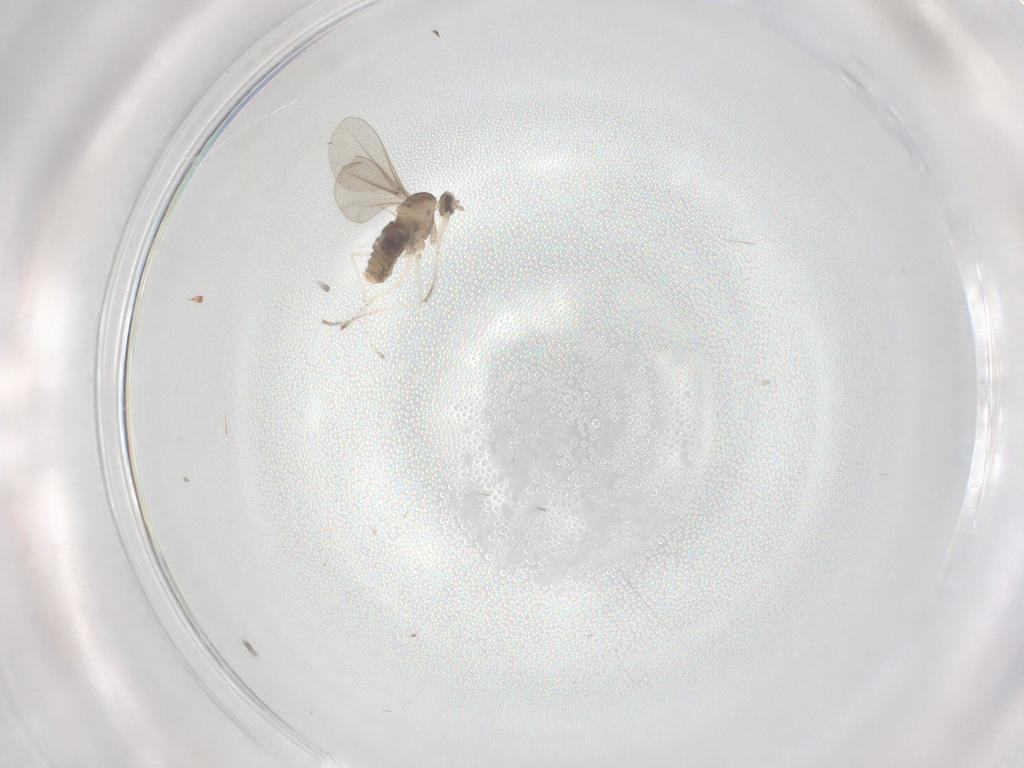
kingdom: Animalia
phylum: Arthropoda
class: Insecta
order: Diptera
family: Cecidomyiidae
